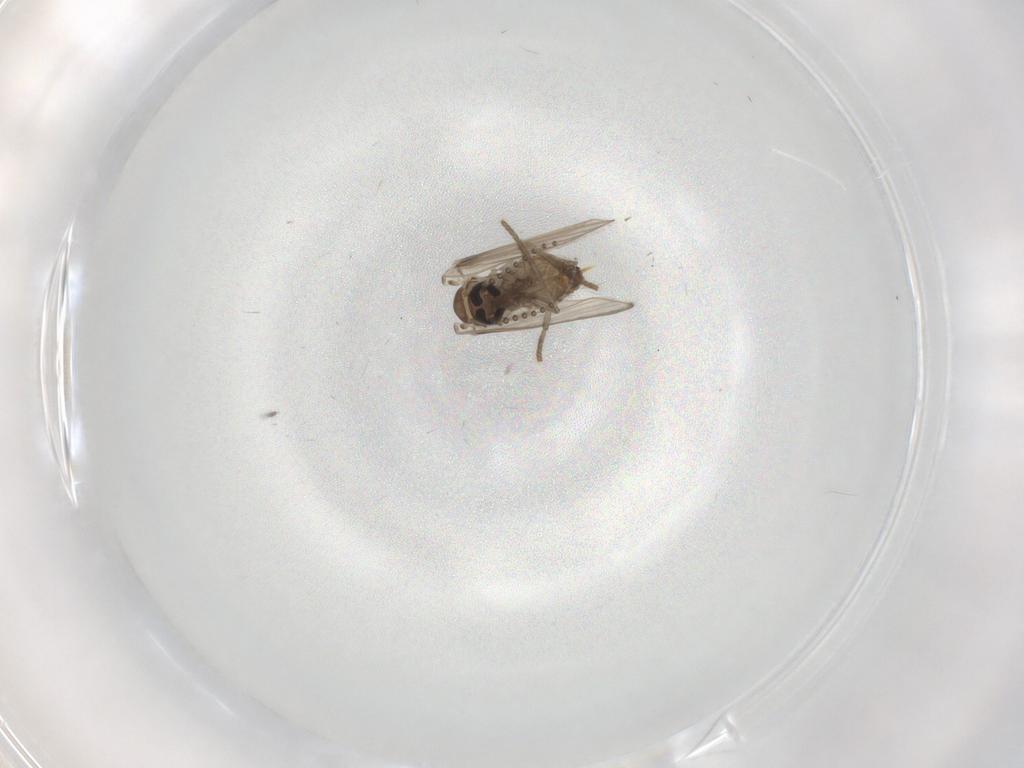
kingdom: Animalia
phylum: Arthropoda
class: Insecta
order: Diptera
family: Psychodidae
